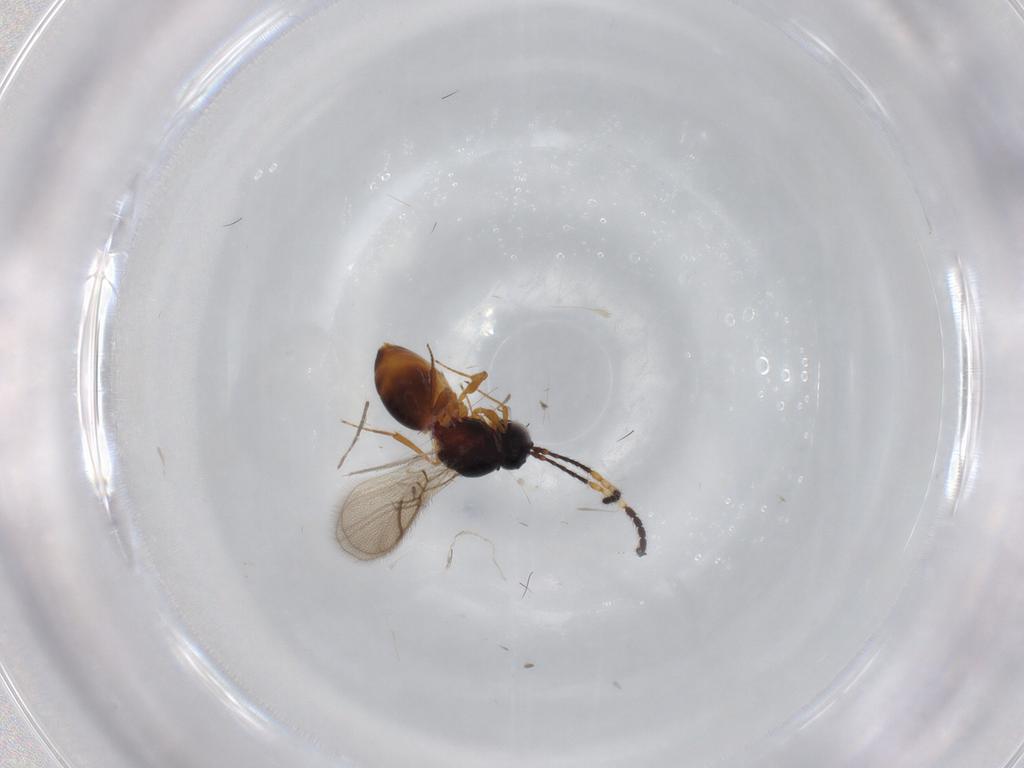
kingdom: Animalia
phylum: Arthropoda
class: Insecta
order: Hymenoptera
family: Figitidae
